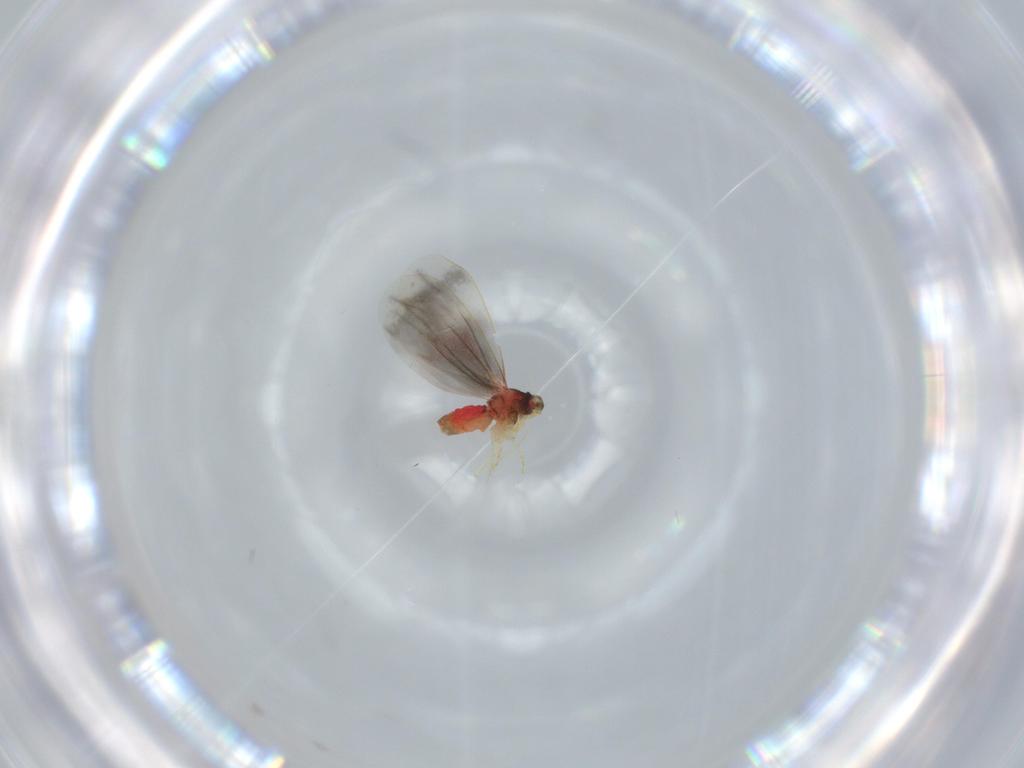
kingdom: Animalia
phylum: Arthropoda
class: Insecta
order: Hemiptera
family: Aleyrodidae
